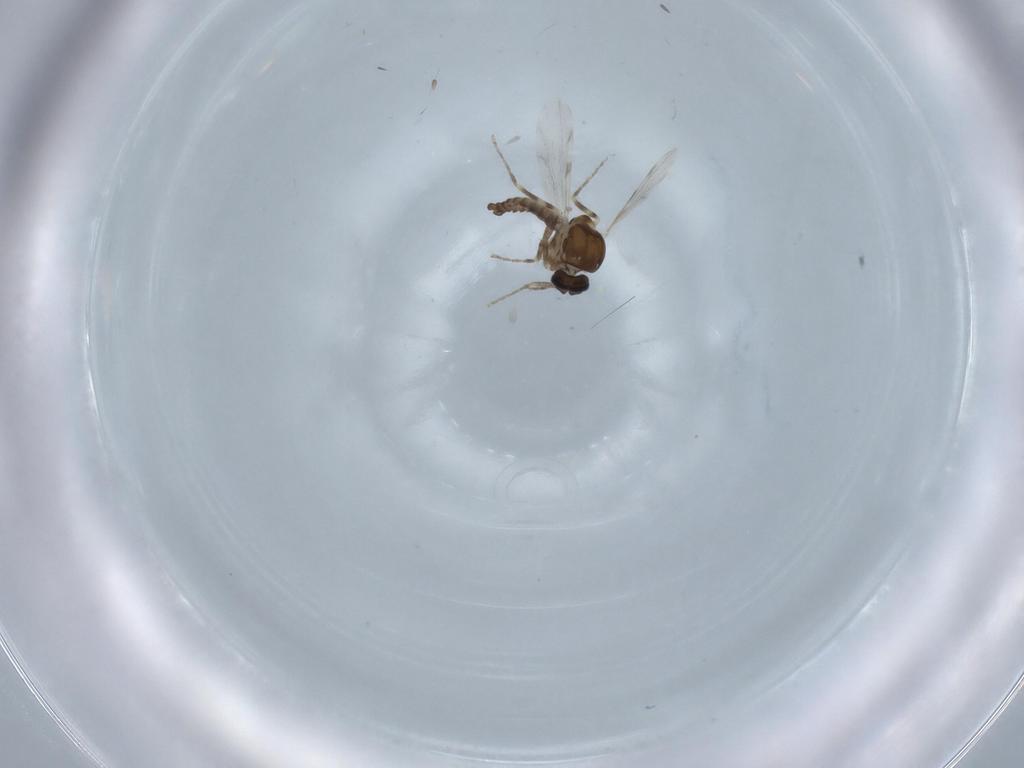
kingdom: Animalia
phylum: Arthropoda
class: Insecta
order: Diptera
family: Ceratopogonidae
